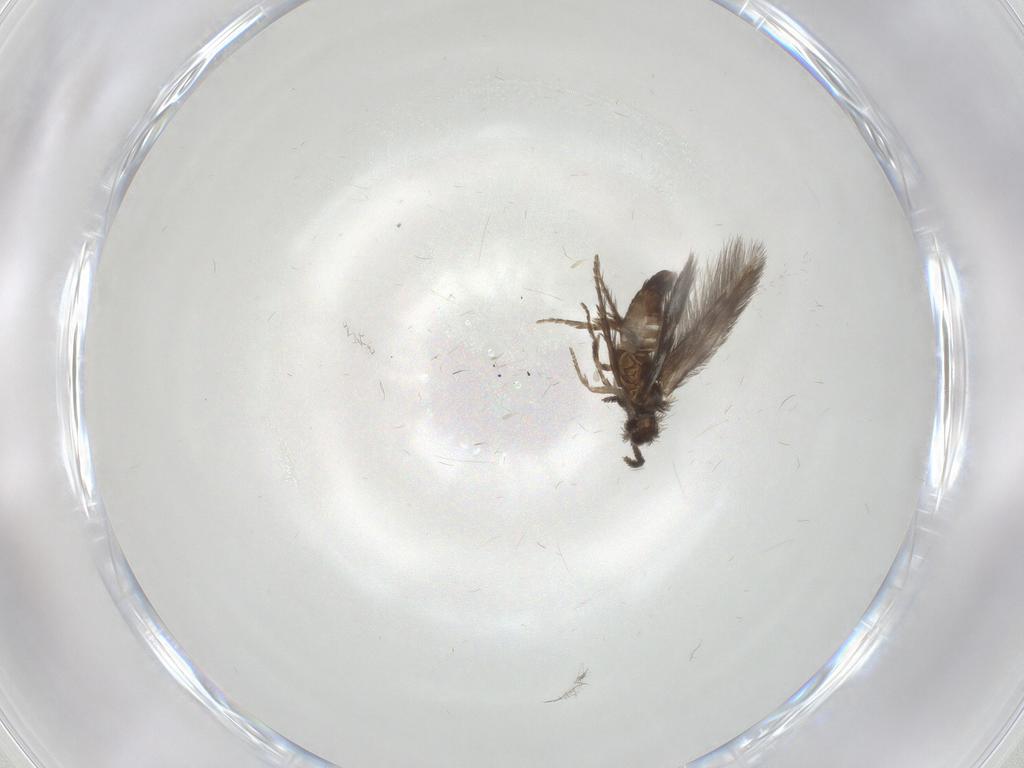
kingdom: Animalia
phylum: Arthropoda
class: Insecta
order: Trichoptera
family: Hydroptilidae
